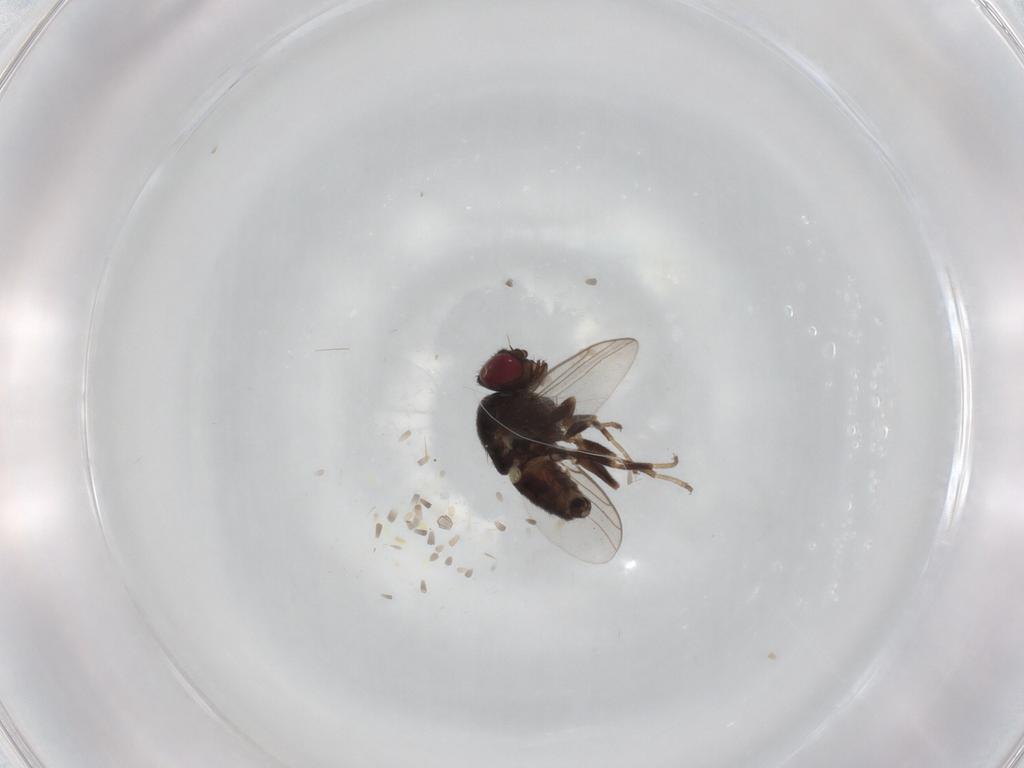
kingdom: Animalia
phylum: Arthropoda
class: Insecta
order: Diptera
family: Chloropidae
